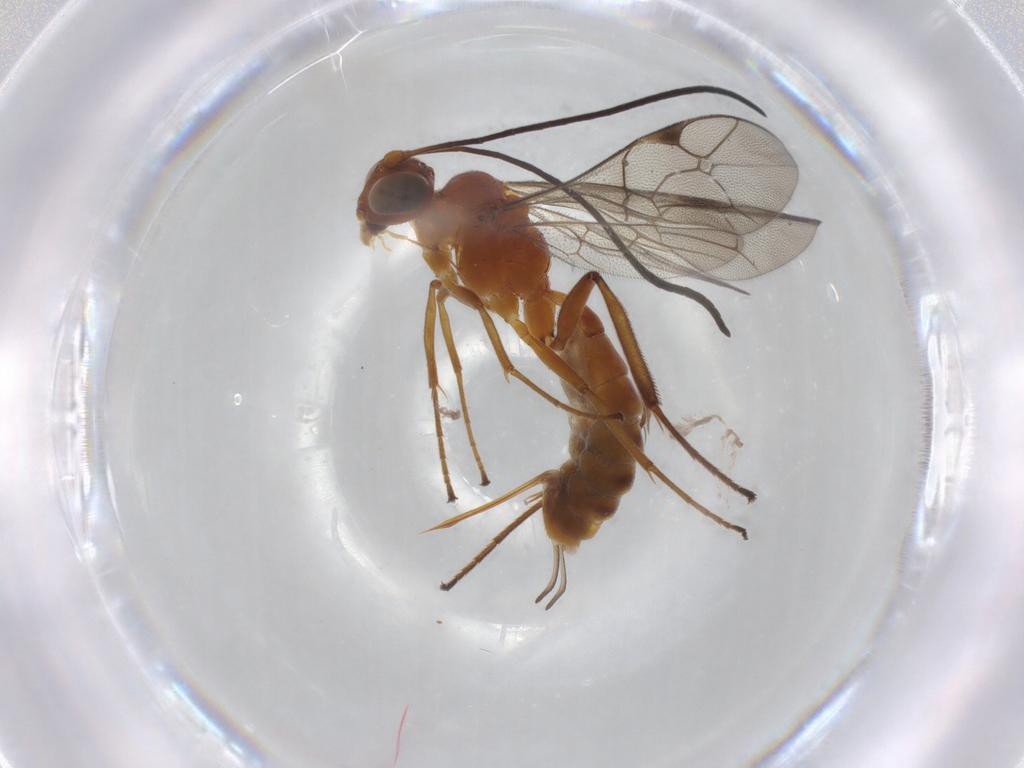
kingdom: Animalia
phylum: Arthropoda
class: Insecta
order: Hymenoptera
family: Ichneumonidae
